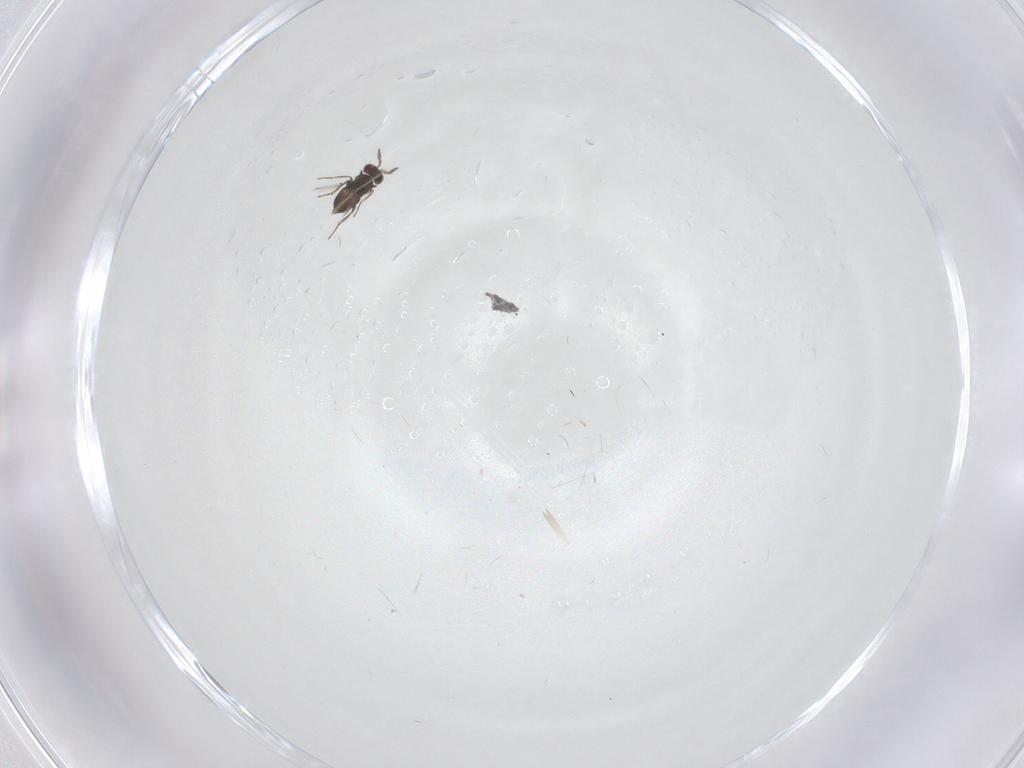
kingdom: Animalia
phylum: Arthropoda
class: Insecta
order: Hymenoptera
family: Trichogrammatidae
